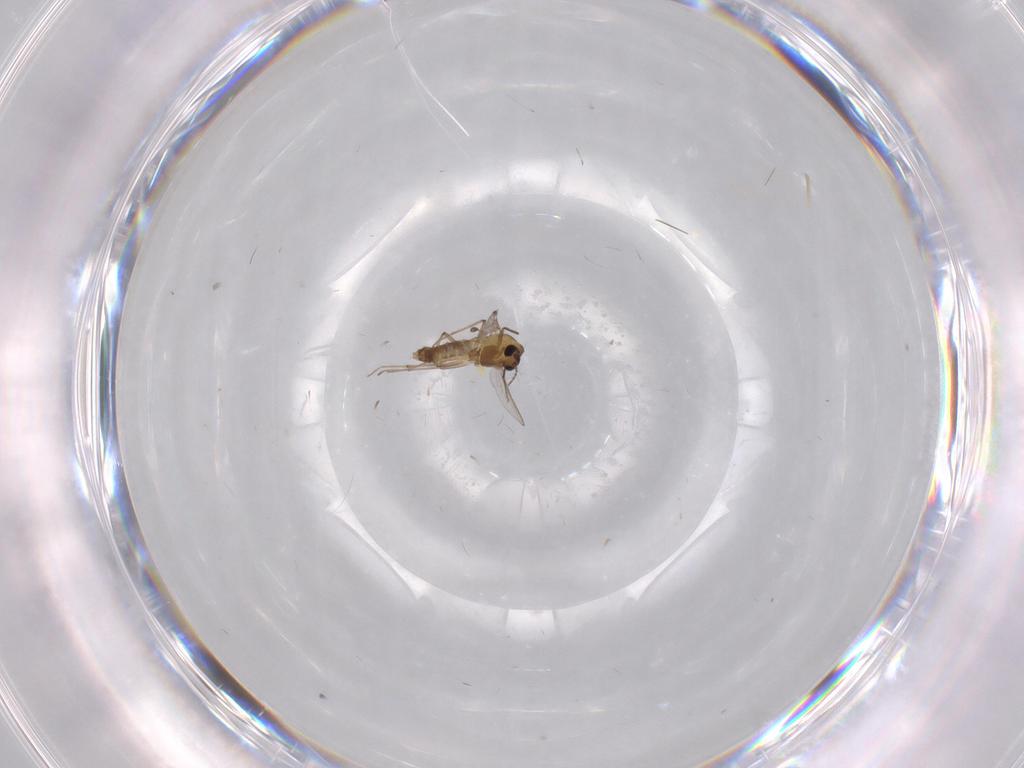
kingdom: Animalia
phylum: Arthropoda
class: Insecta
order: Diptera
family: Chironomidae
